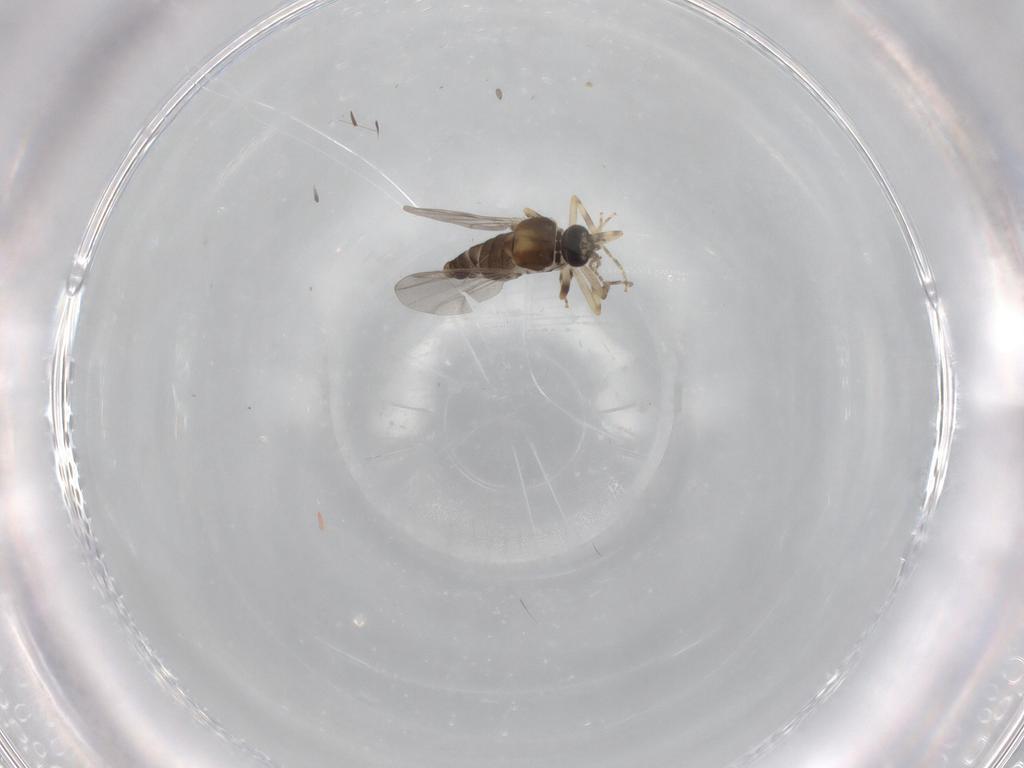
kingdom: Animalia
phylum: Arthropoda
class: Insecta
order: Diptera
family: Ceratopogonidae
